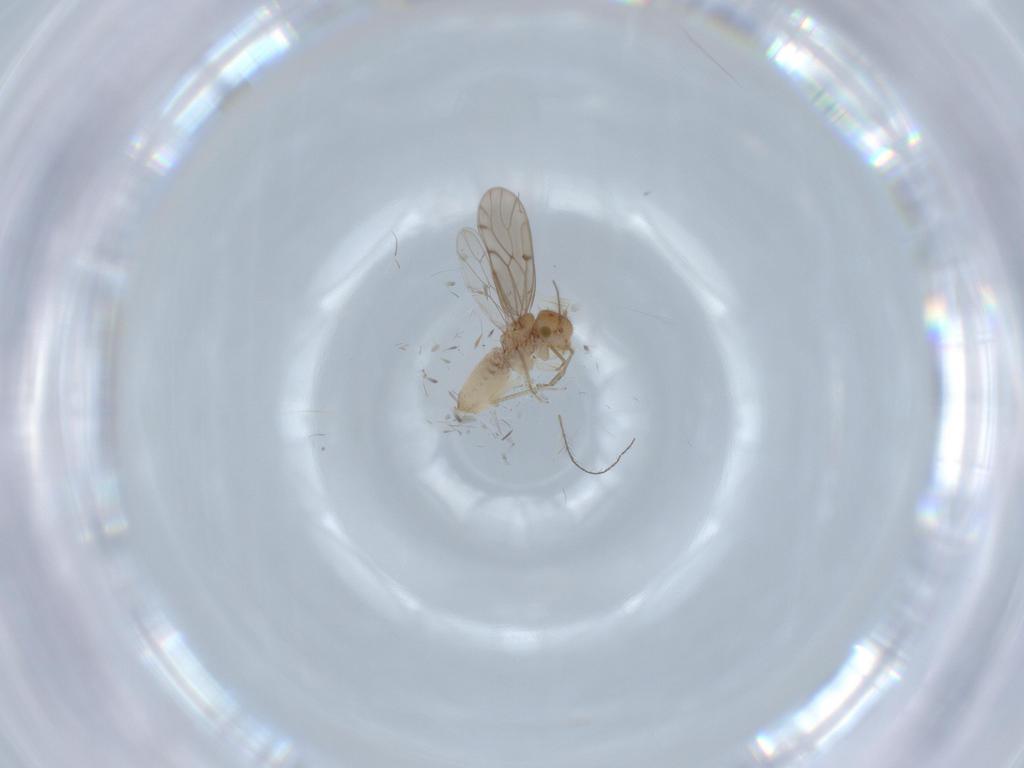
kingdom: Animalia
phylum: Arthropoda
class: Insecta
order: Psocodea
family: Ectopsocidae
